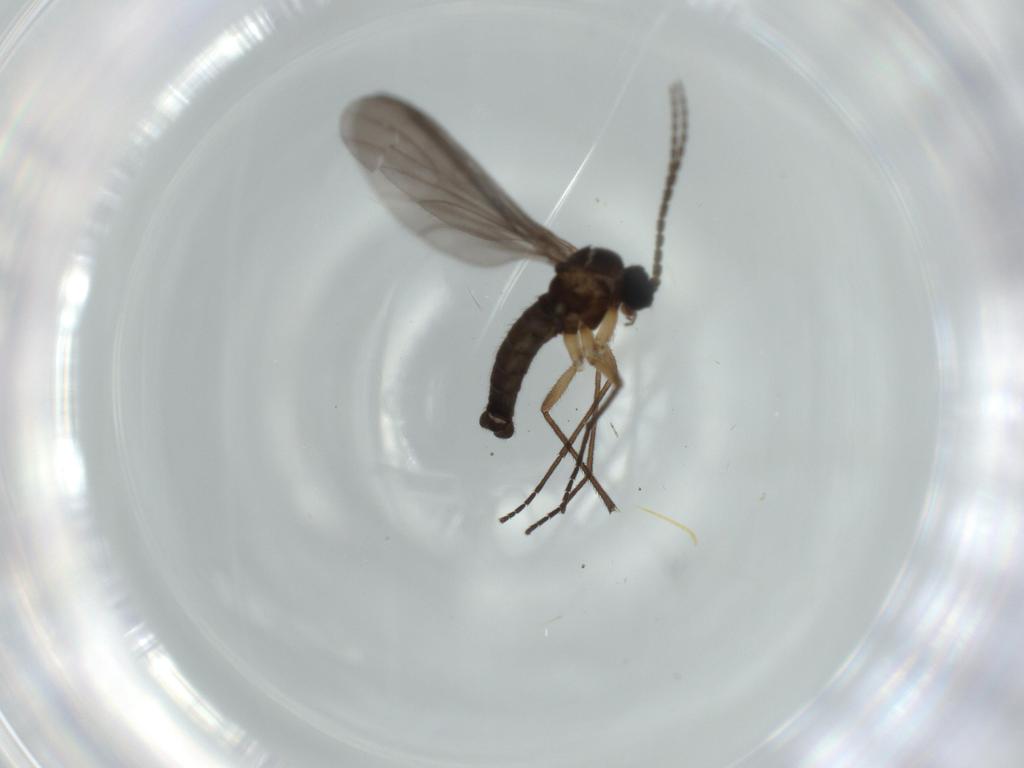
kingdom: Animalia
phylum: Arthropoda
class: Insecta
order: Diptera
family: Sciaridae
